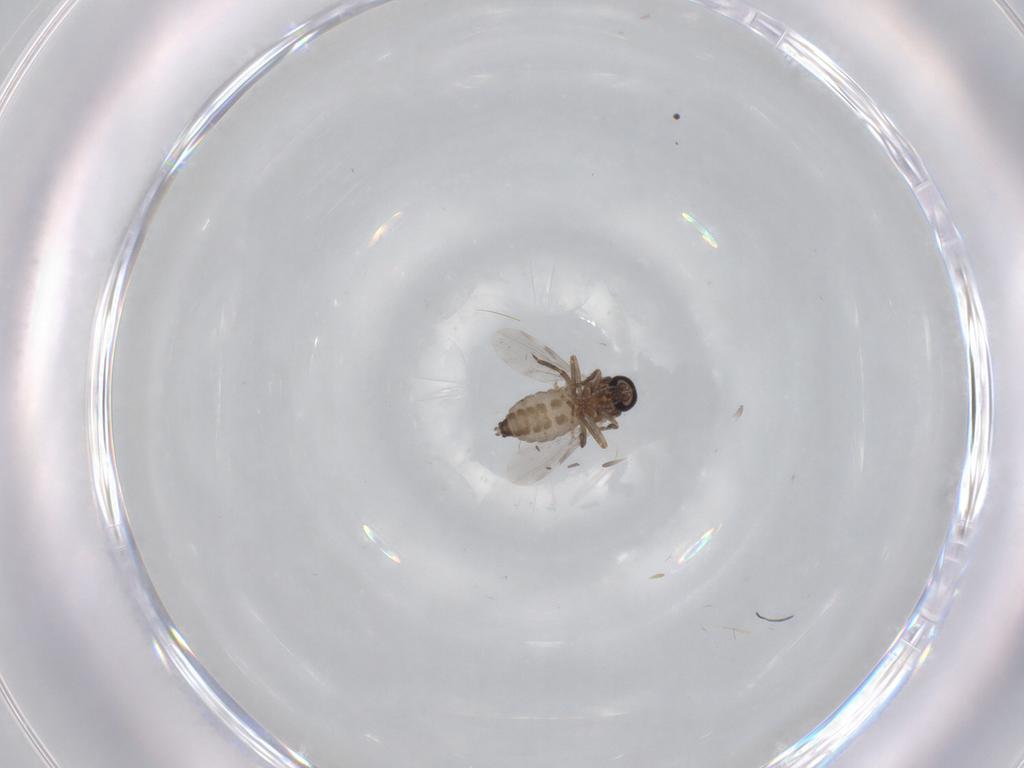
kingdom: Animalia
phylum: Arthropoda
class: Insecta
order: Diptera
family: Ceratopogonidae
